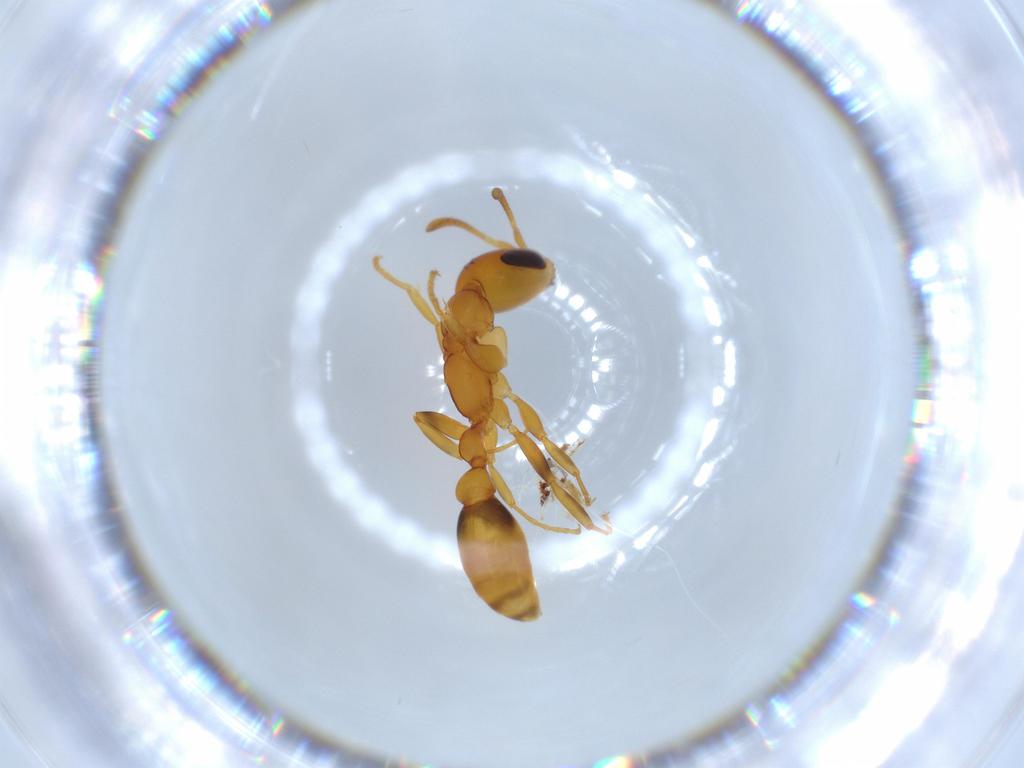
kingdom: Animalia
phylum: Arthropoda
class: Insecta
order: Hymenoptera
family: Formicidae
